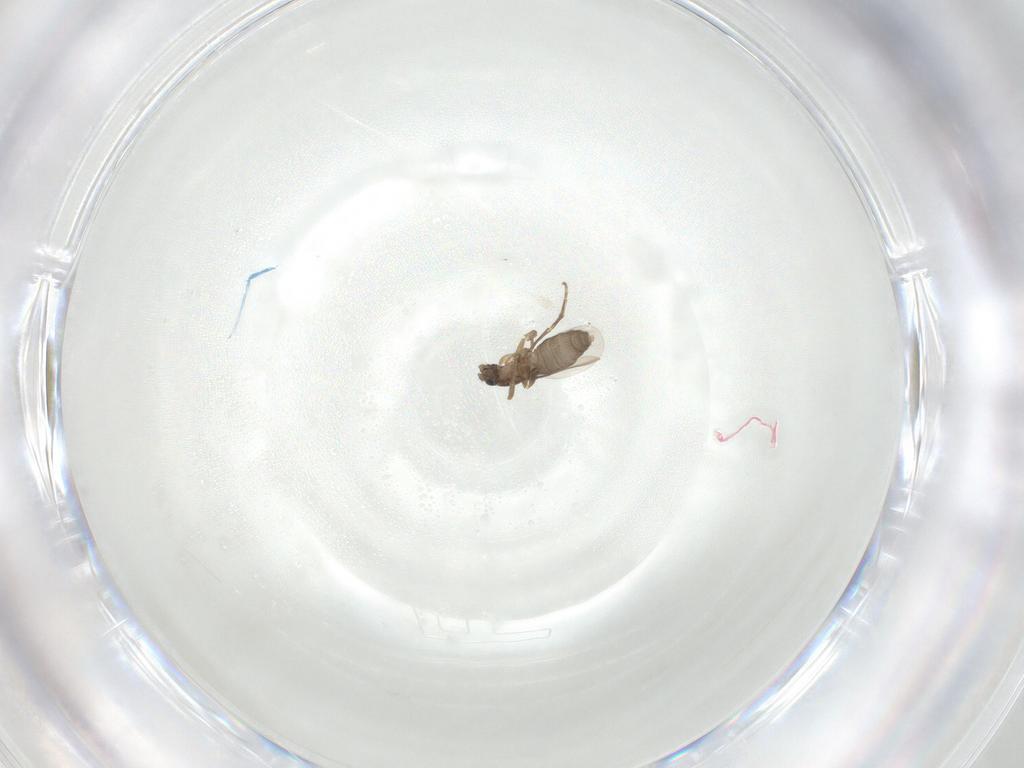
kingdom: Animalia
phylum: Arthropoda
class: Insecta
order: Diptera
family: Phoridae
